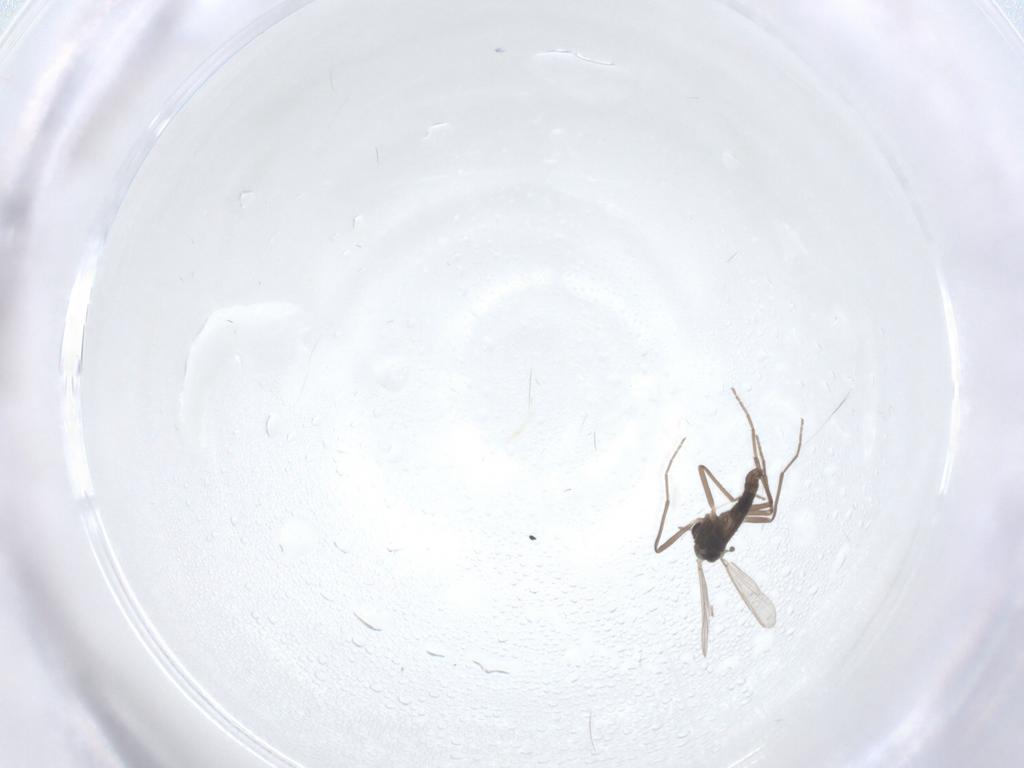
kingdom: Animalia
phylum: Arthropoda
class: Insecta
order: Diptera
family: Chironomidae
